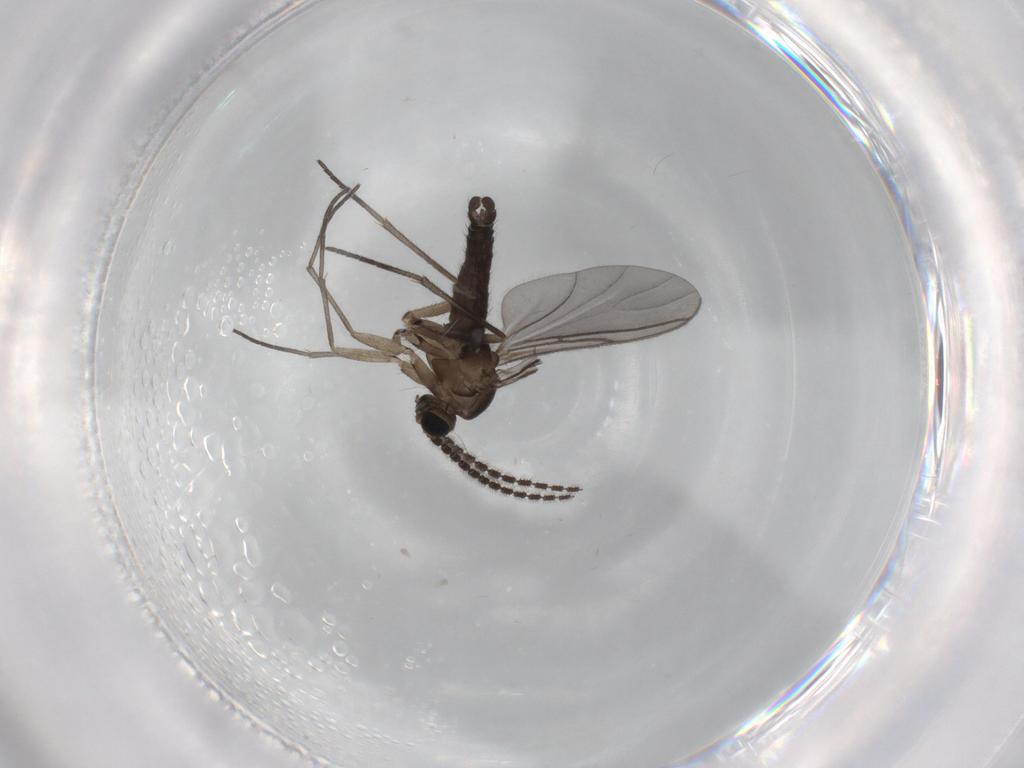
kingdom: Animalia
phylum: Arthropoda
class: Insecta
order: Diptera
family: Sciaridae
